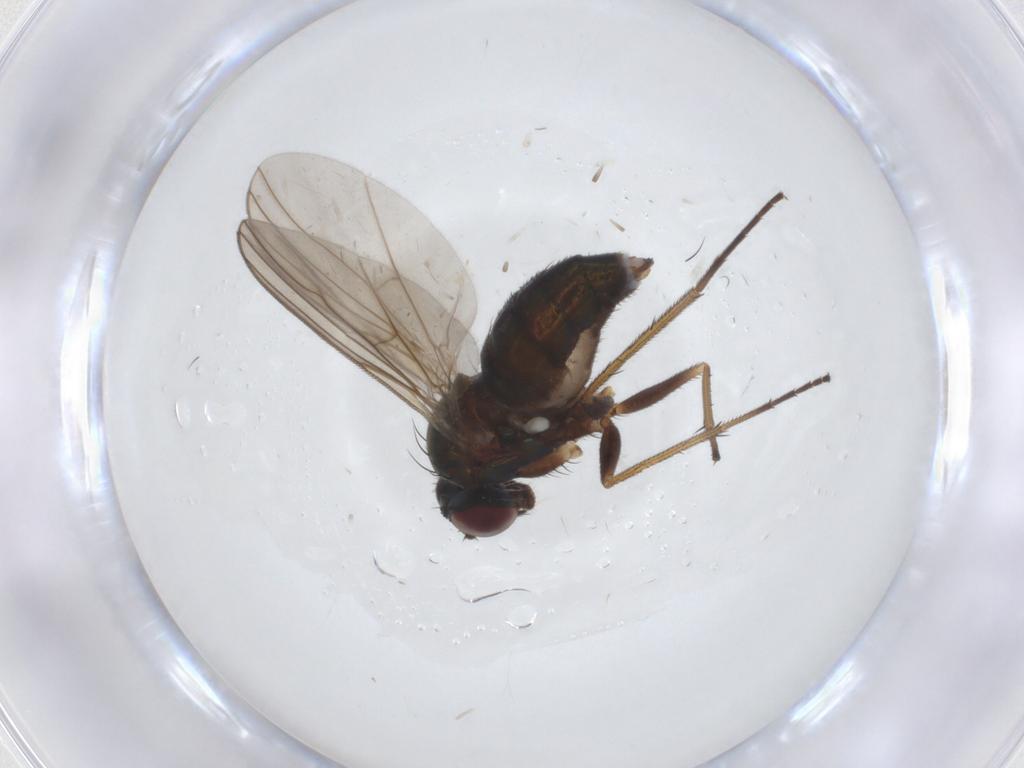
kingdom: Animalia
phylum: Arthropoda
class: Insecta
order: Diptera
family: Dolichopodidae
